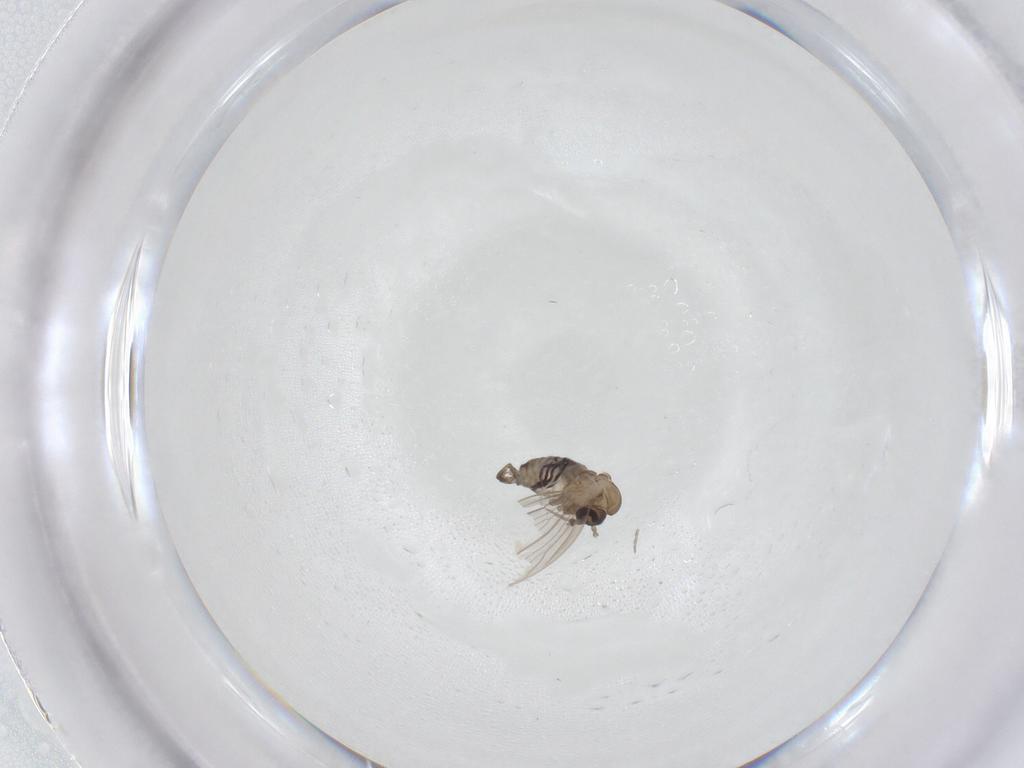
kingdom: Animalia
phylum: Arthropoda
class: Insecta
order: Diptera
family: Psychodidae
